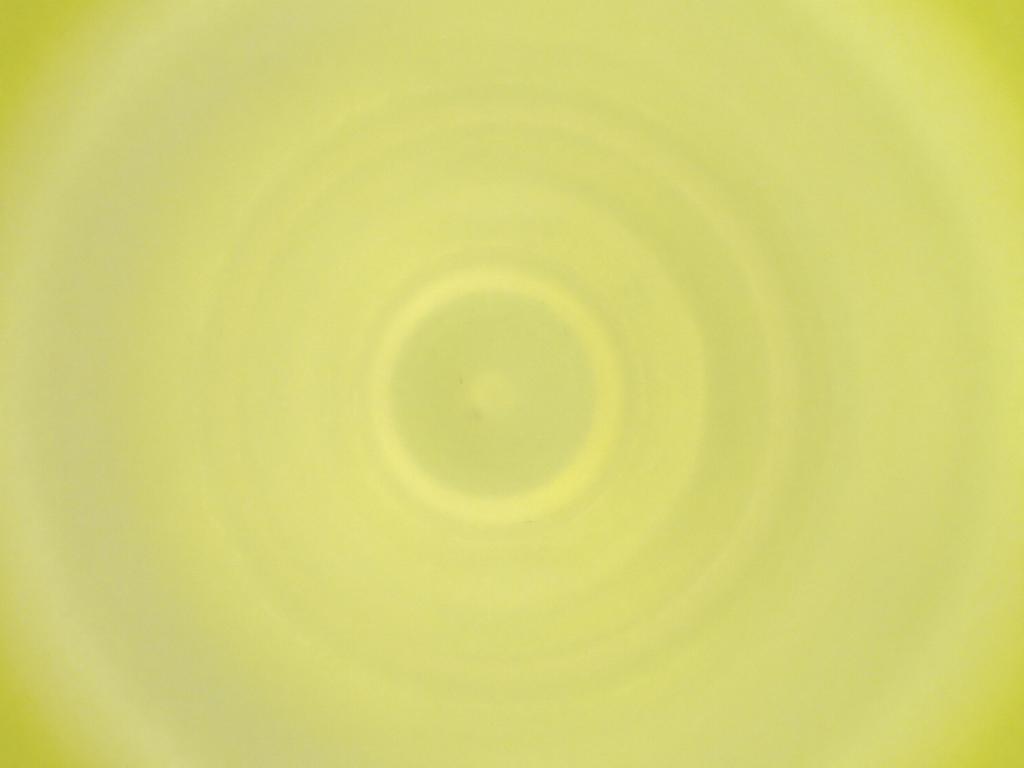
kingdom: Animalia
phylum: Arthropoda
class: Insecta
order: Diptera
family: Cecidomyiidae
